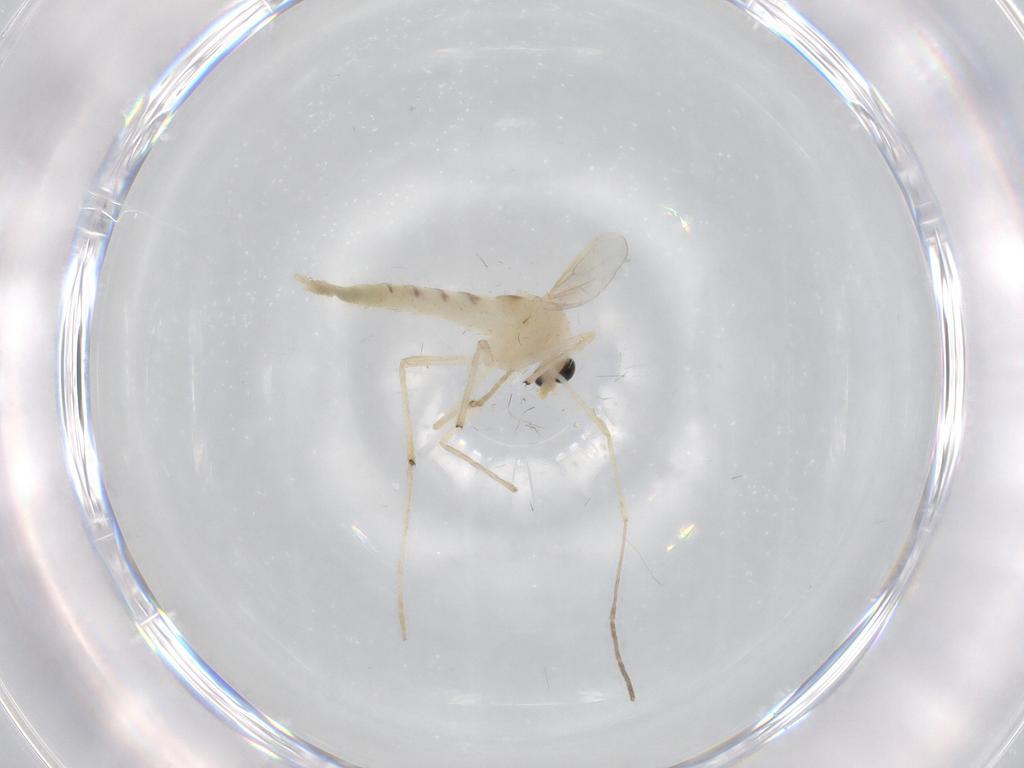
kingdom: Animalia
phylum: Arthropoda
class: Insecta
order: Diptera
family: Chironomidae
